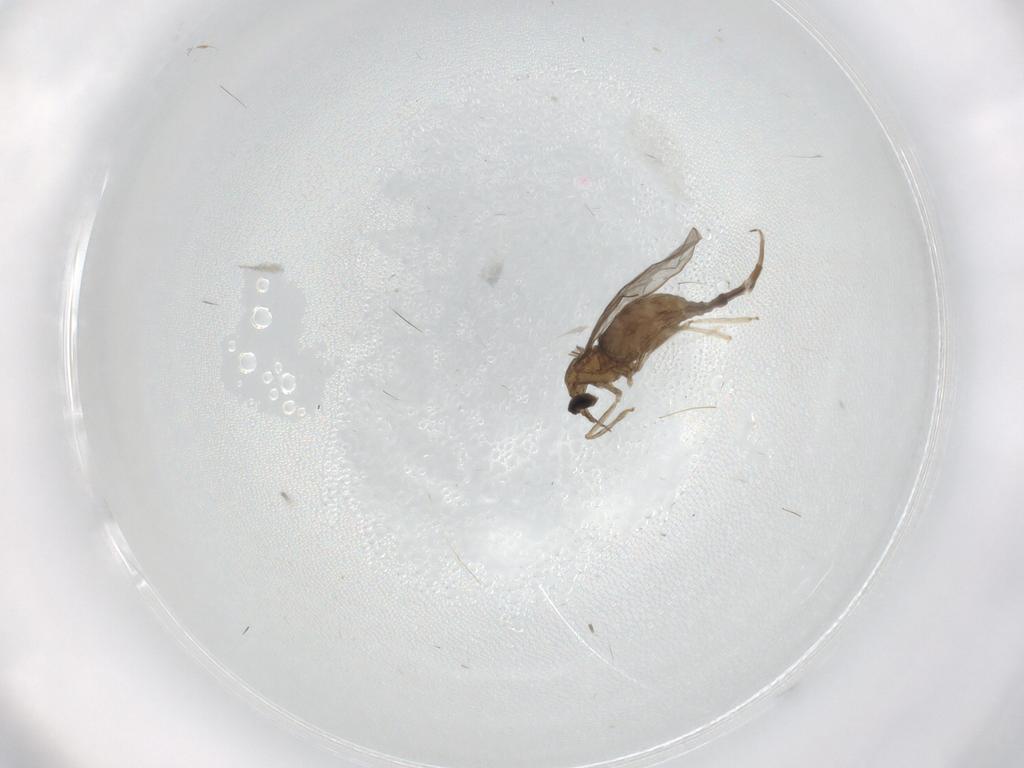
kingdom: Animalia
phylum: Arthropoda
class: Insecta
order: Diptera
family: Cecidomyiidae
